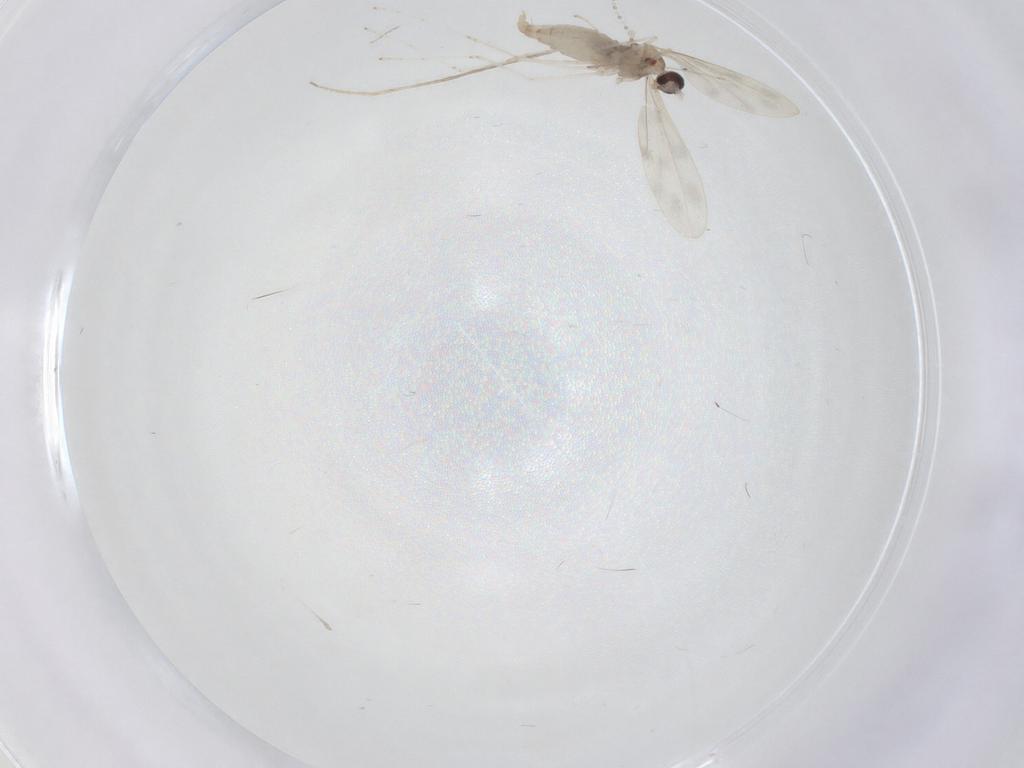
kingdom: Animalia
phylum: Arthropoda
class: Insecta
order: Diptera
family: Cecidomyiidae
